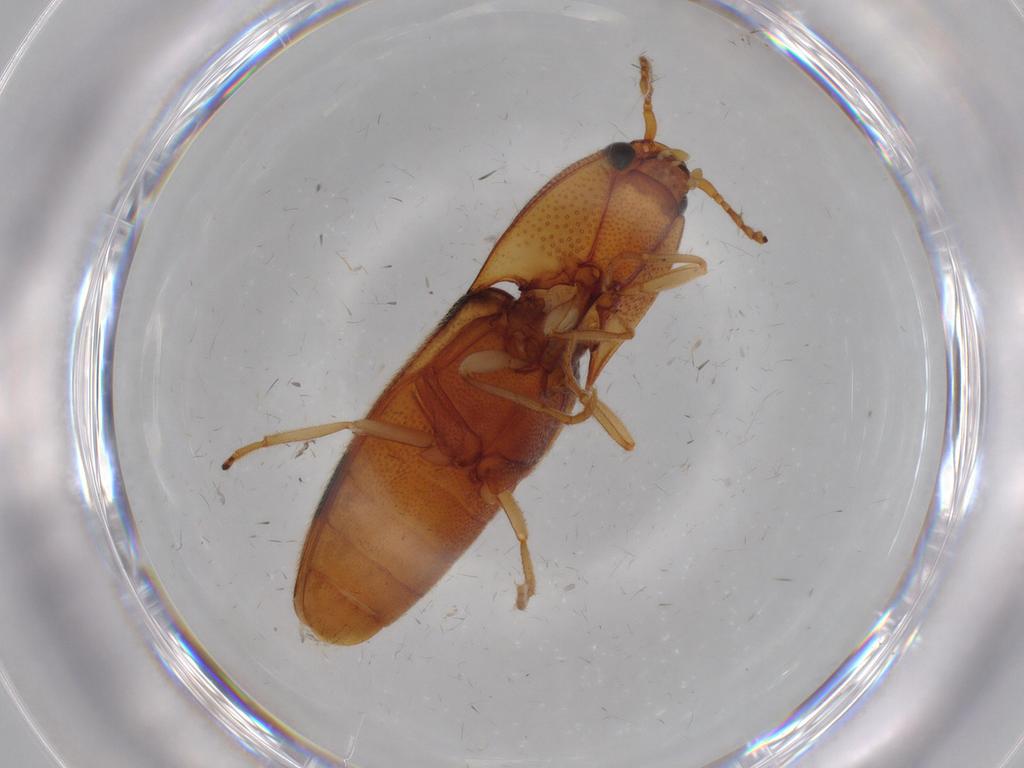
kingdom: Animalia
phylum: Arthropoda
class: Insecta
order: Coleoptera
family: Elateridae
